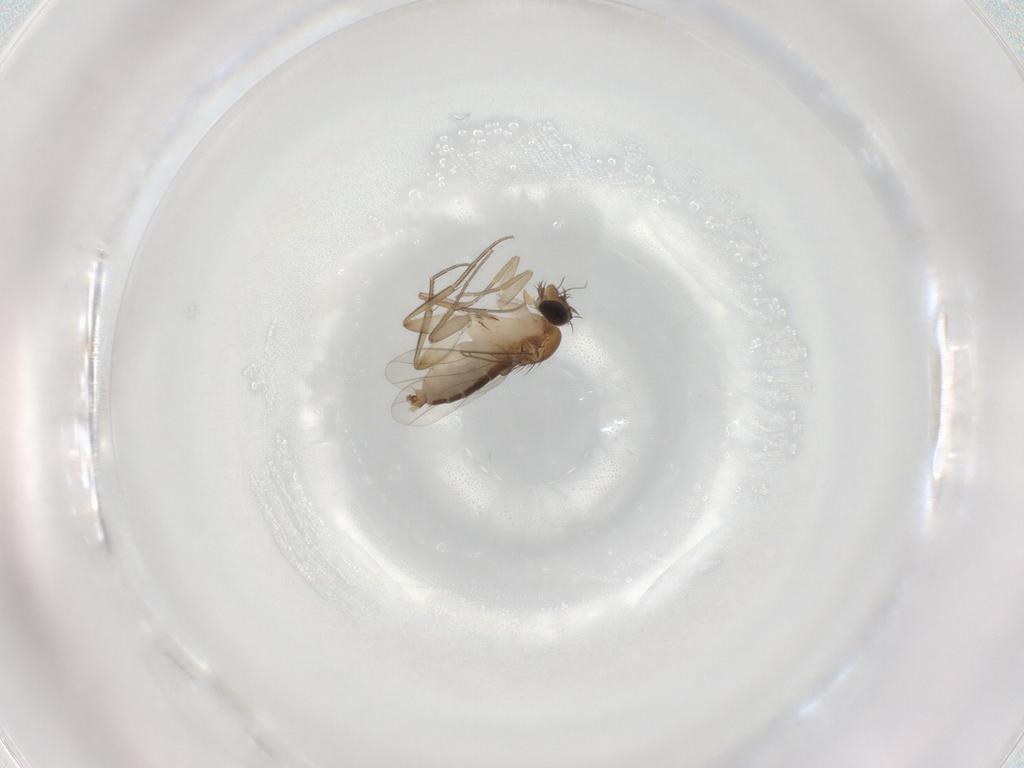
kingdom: Animalia
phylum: Arthropoda
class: Insecta
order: Diptera
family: Phoridae
